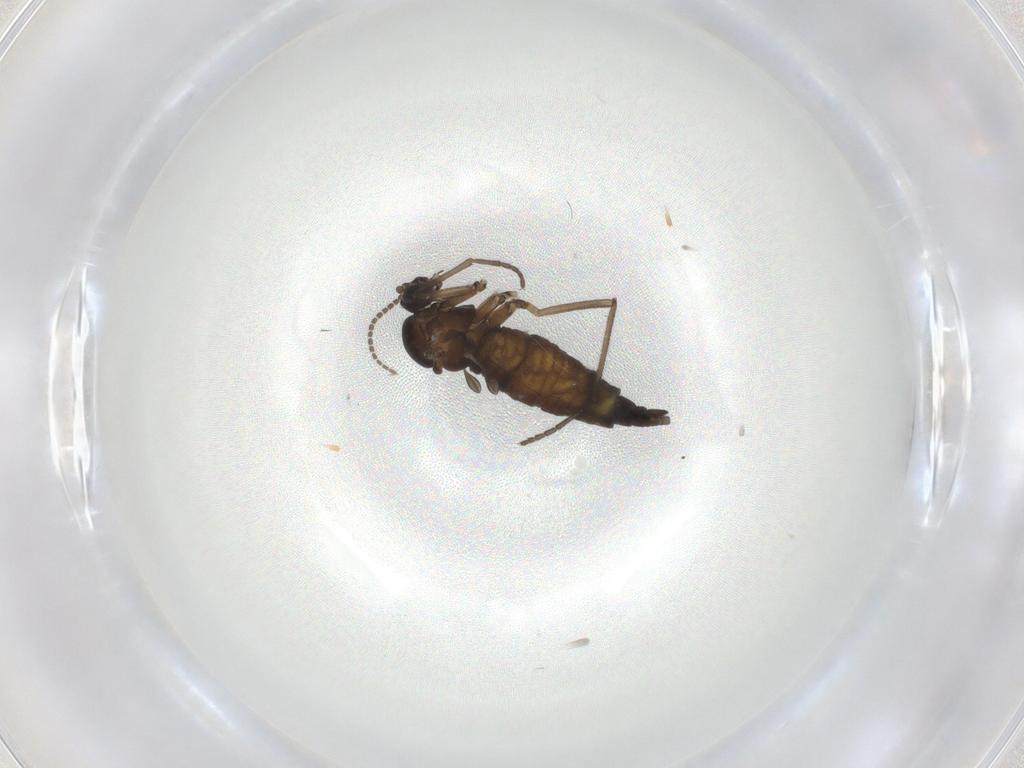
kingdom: Animalia
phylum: Arthropoda
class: Insecta
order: Diptera
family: Sciaridae
